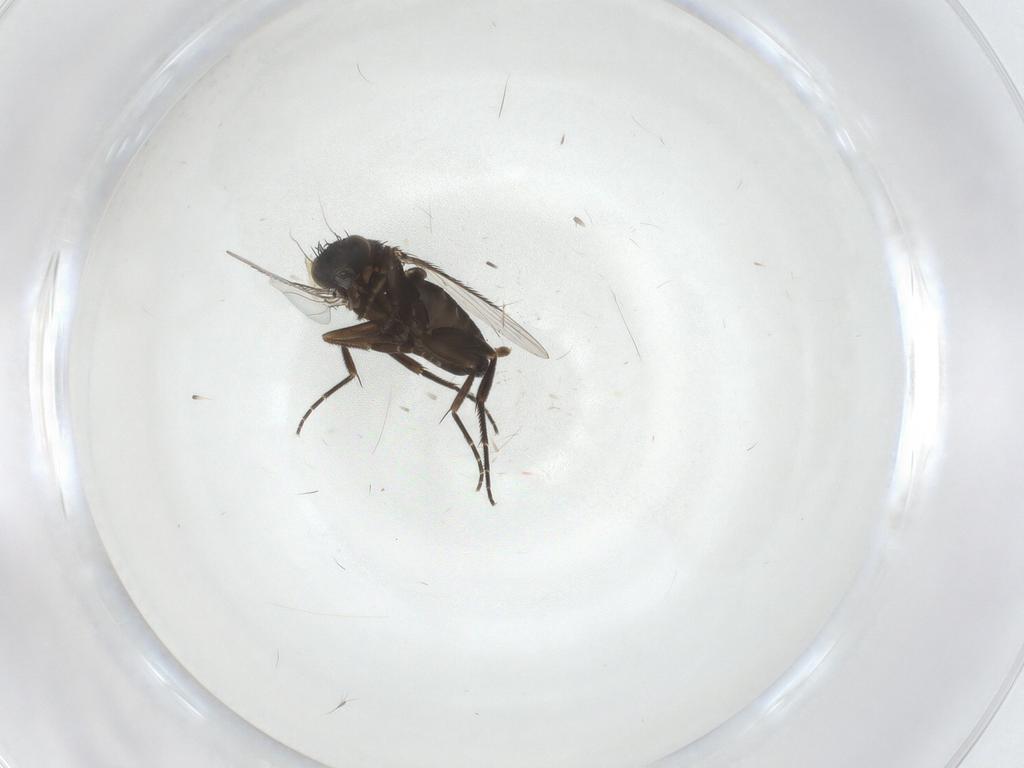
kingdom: Animalia
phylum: Arthropoda
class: Insecta
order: Diptera
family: Phoridae
